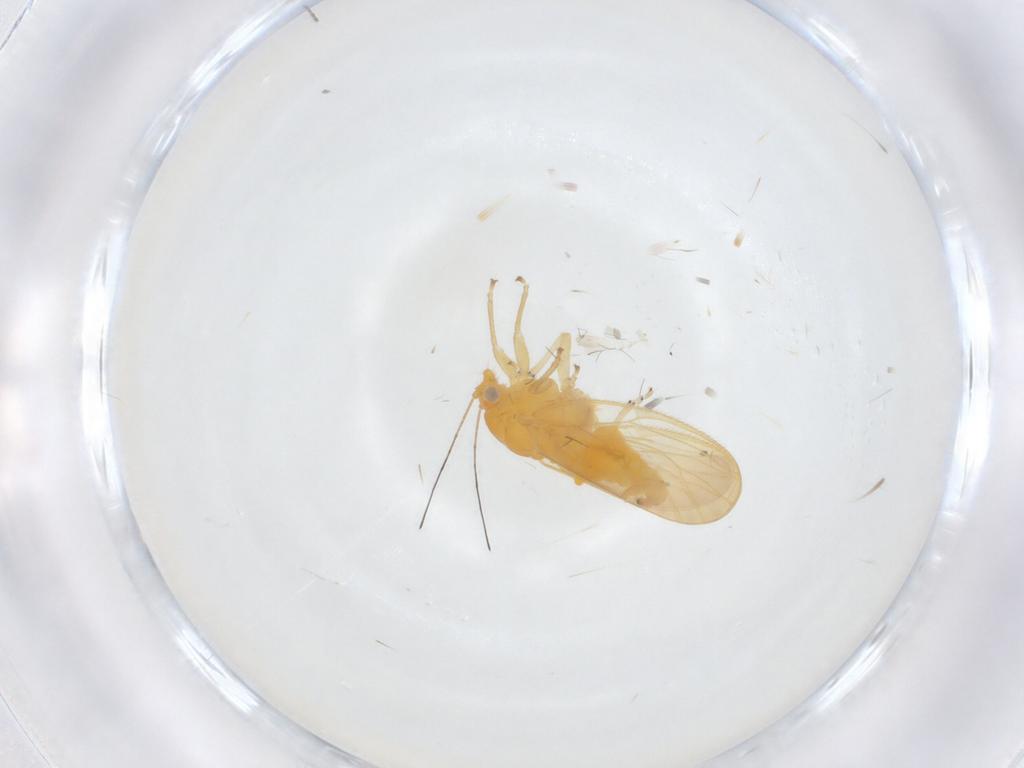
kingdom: Animalia
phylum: Arthropoda
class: Insecta
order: Hemiptera
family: Psyllidae
